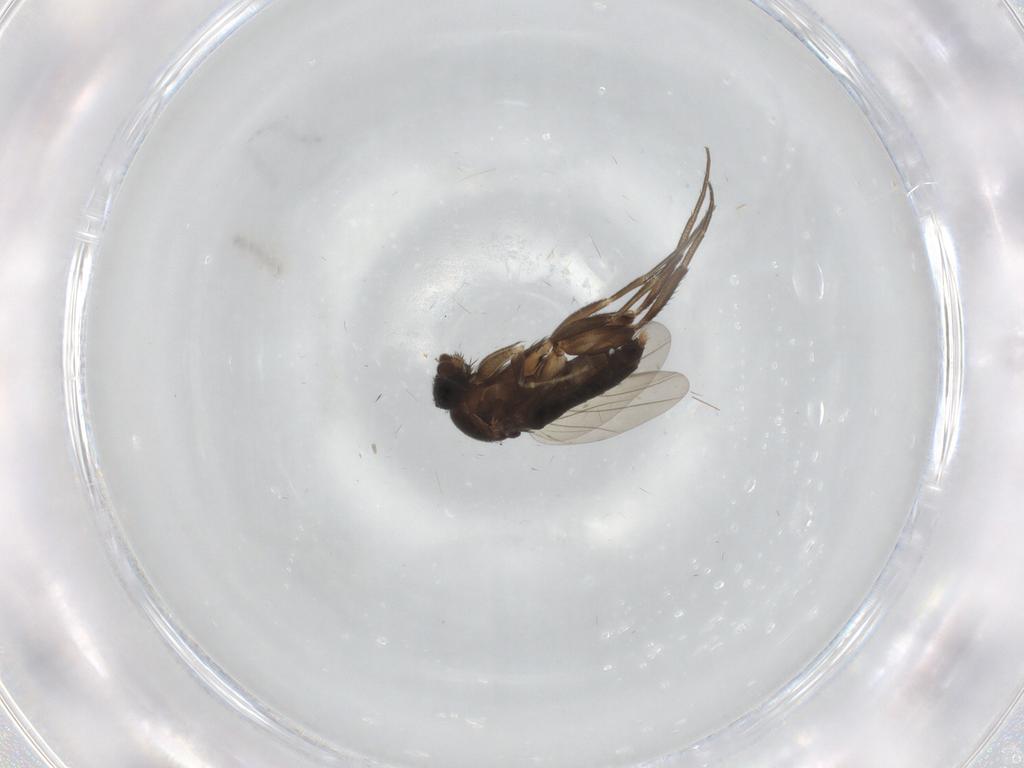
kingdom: Animalia
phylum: Arthropoda
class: Insecta
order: Diptera
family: Phoridae
